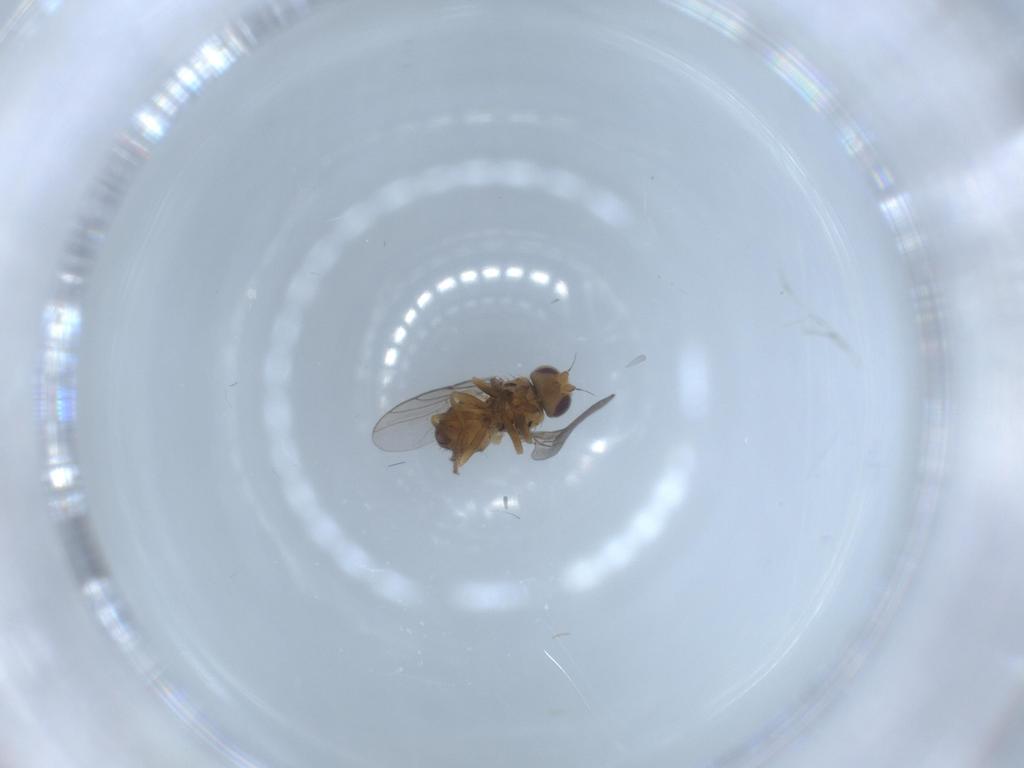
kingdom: Animalia
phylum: Arthropoda
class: Insecta
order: Diptera
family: Chloropidae
